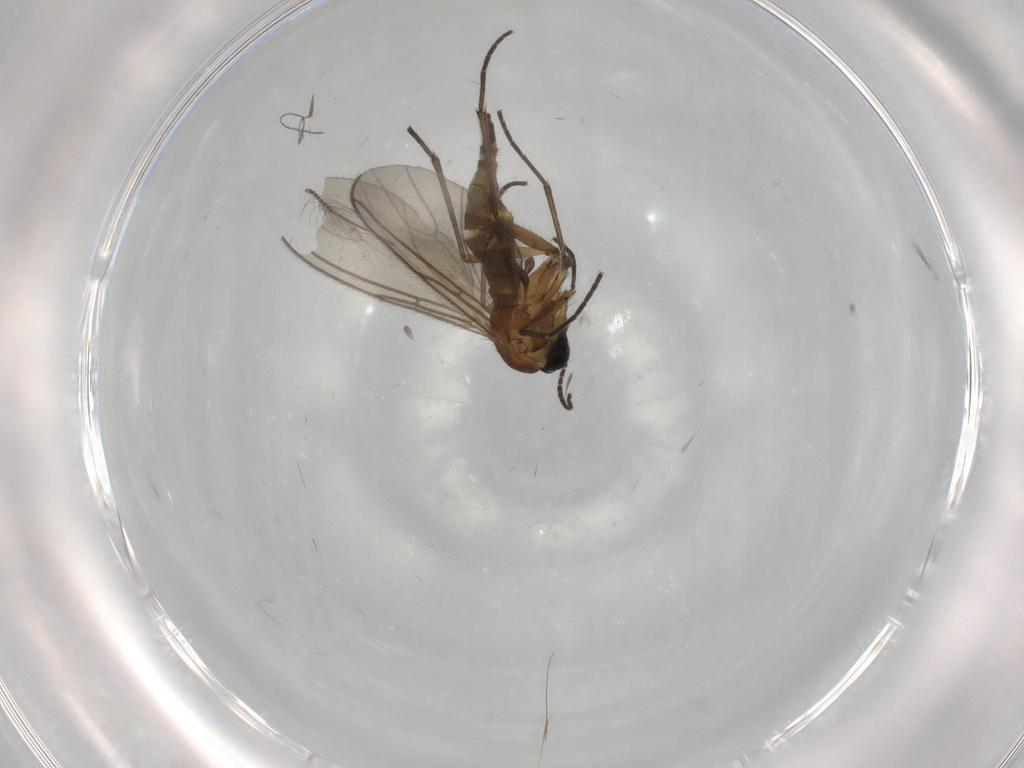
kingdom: Animalia
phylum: Arthropoda
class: Insecta
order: Diptera
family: Sciaridae
